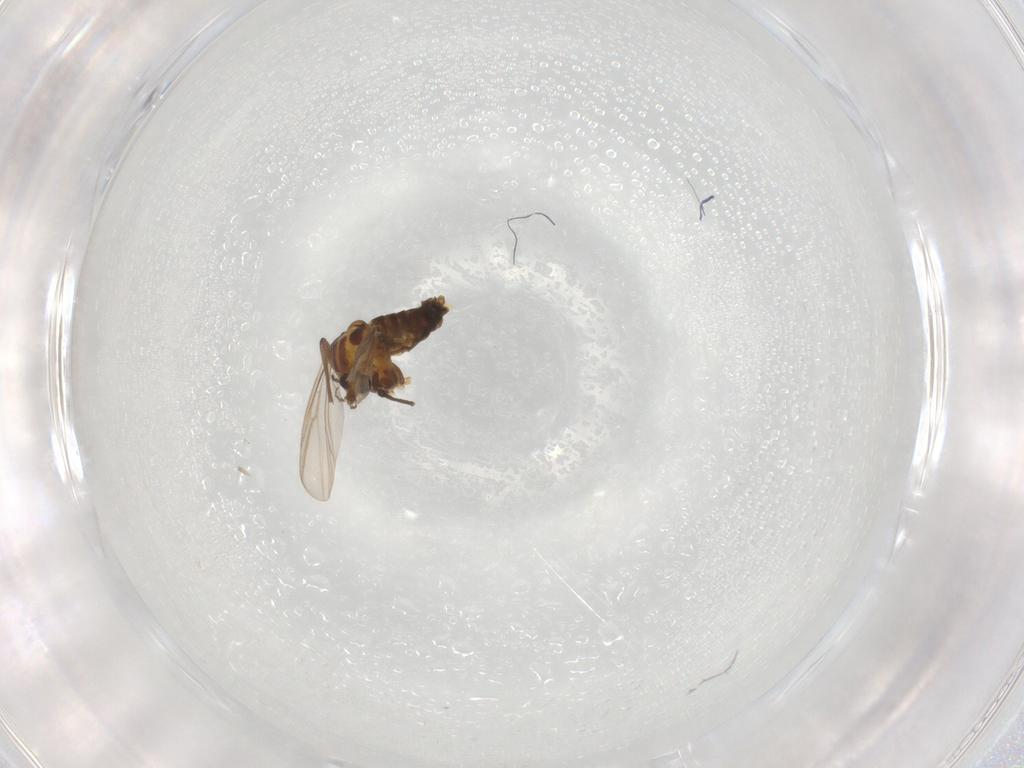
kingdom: Animalia
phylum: Arthropoda
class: Insecta
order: Diptera
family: Chironomidae
